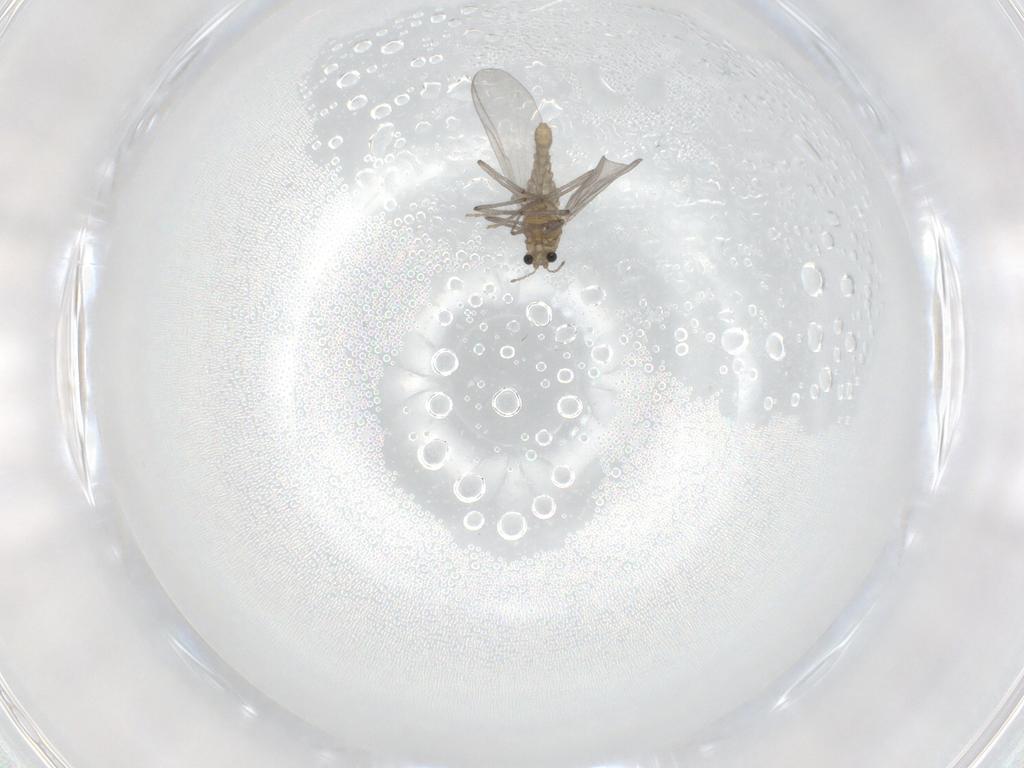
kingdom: Animalia
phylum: Arthropoda
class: Insecta
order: Diptera
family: Chironomidae
